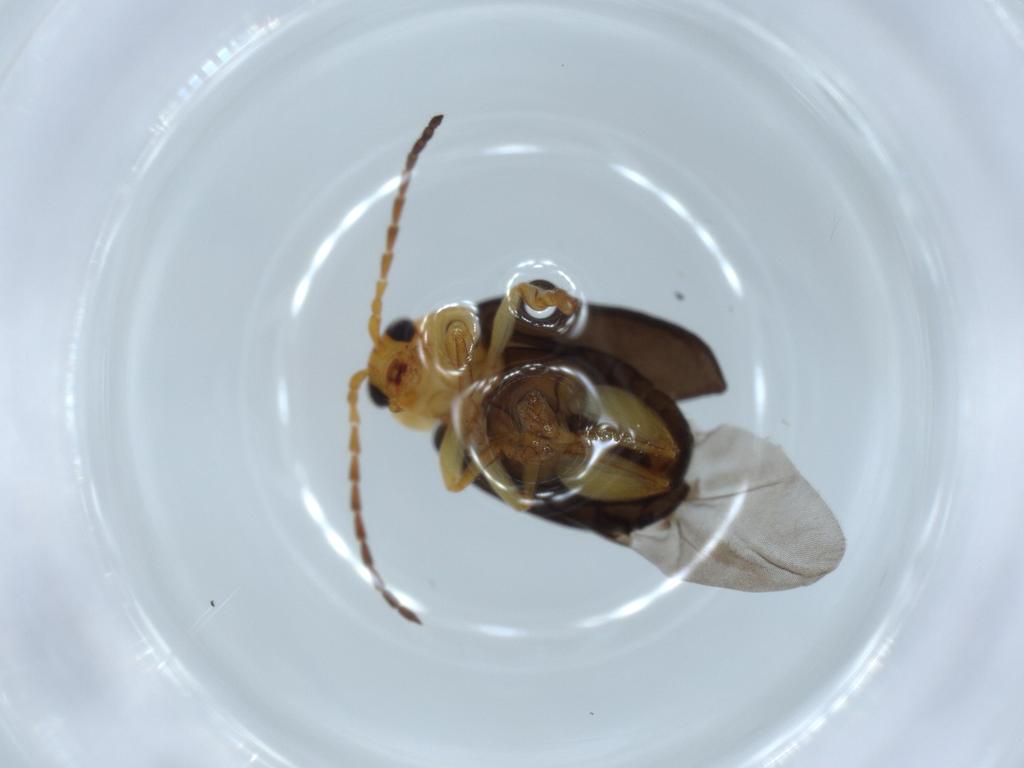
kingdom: Animalia
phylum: Arthropoda
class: Insecta
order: Coleoptera
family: Chrysomelidae
